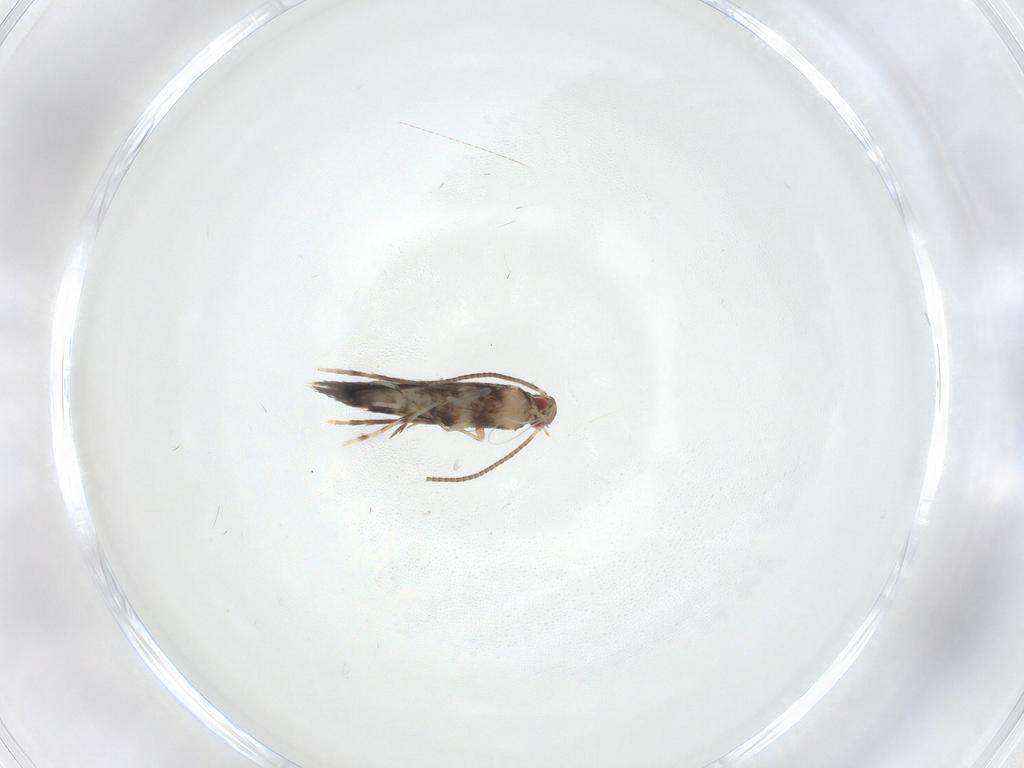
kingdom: Animalia
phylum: Arthropoda
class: Insecta
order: Lepidoptera
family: Gracillariidae
